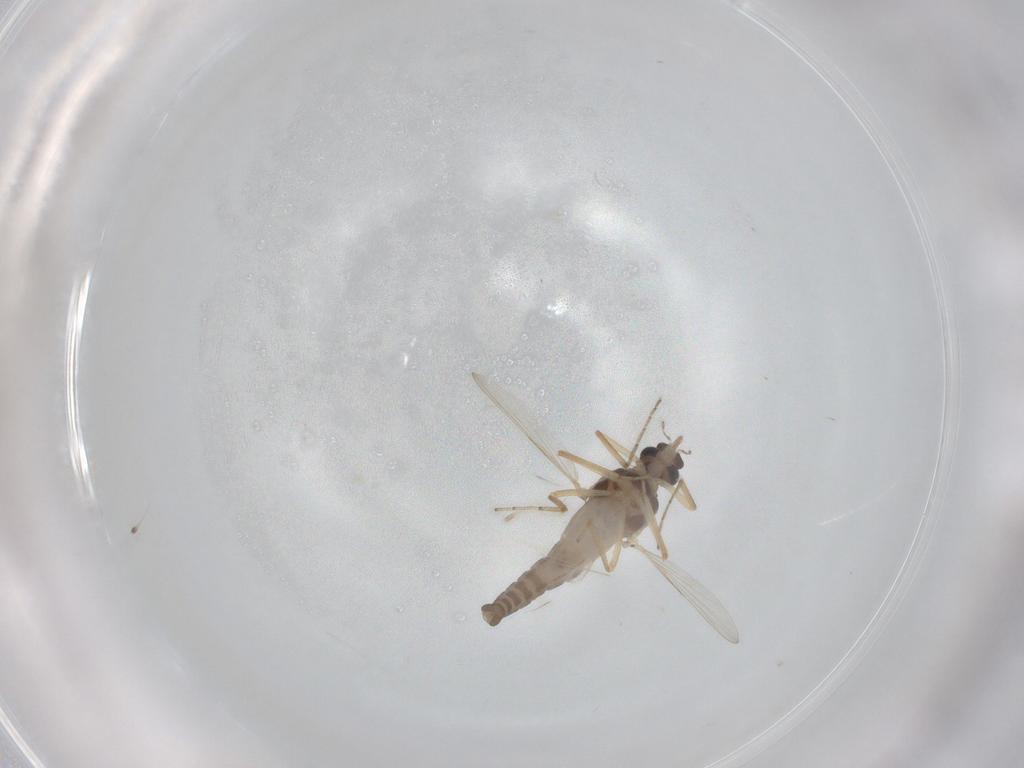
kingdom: Animalia
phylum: Arthropoda
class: Insecta
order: Diptera
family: Ceratopogonidae
